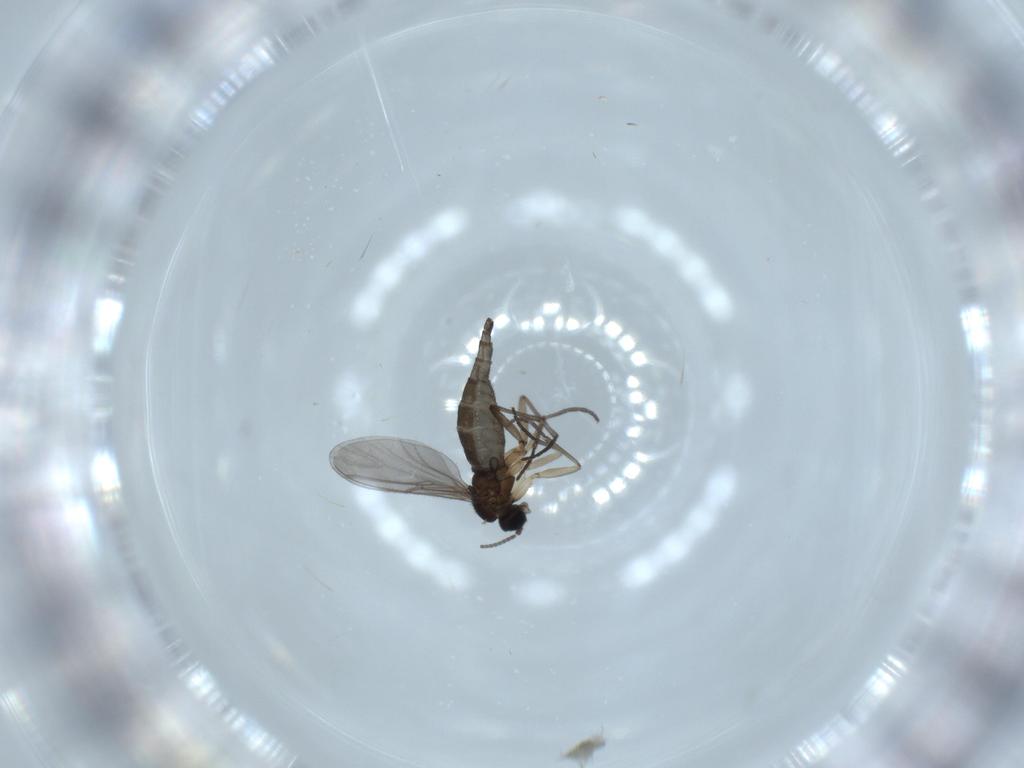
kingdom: Animalia
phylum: Arthropoda
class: Insecta
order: Diptera
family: Sciaridae
